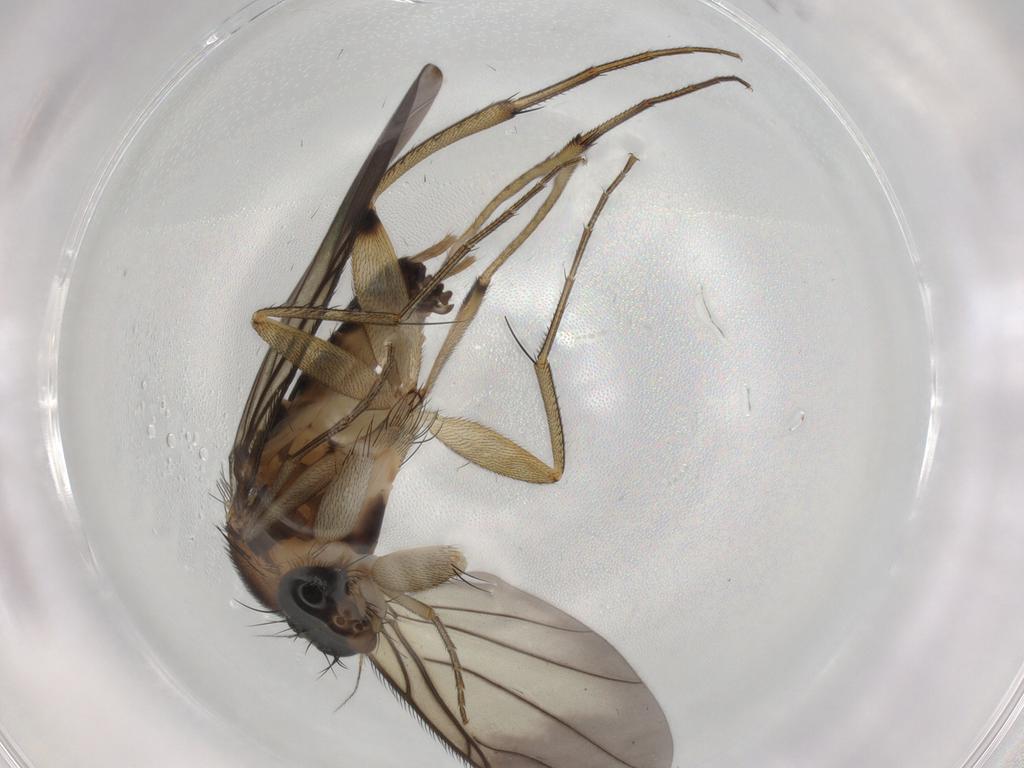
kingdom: Animalia
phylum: Arthropoda
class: Insecta
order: Diptera
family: Phoridae
